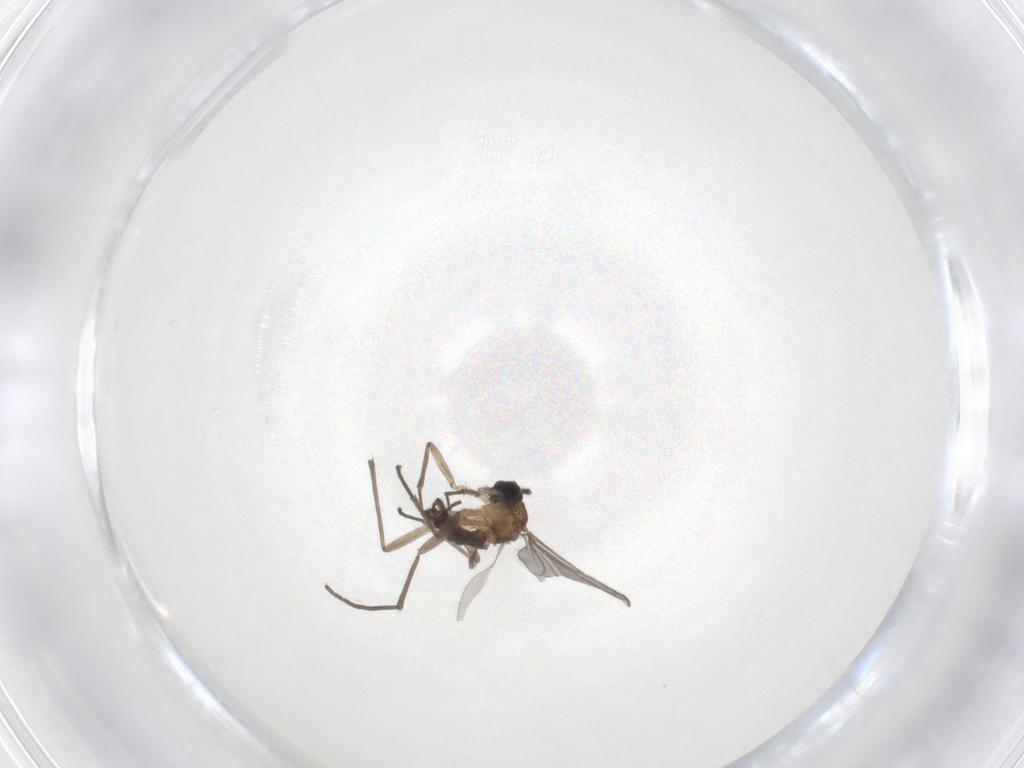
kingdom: Animalia
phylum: Arthropoda
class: Insecta
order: Diptera
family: Sciaridae
